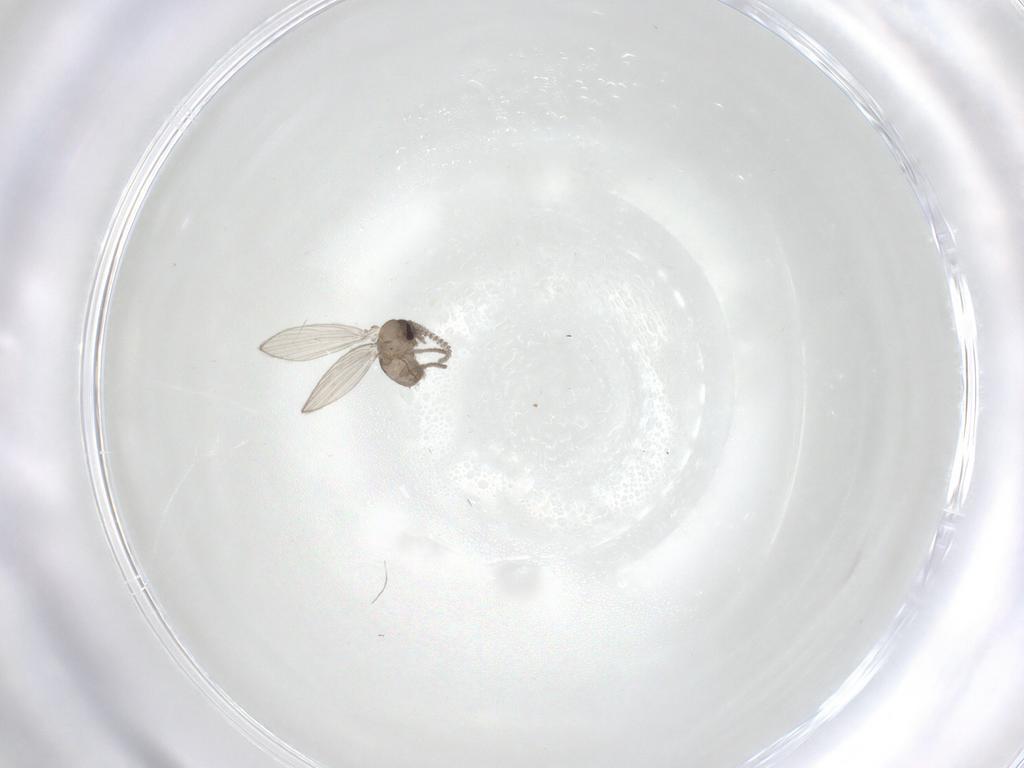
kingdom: Animalia
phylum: Arthropoda
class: Insecta
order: Diptera
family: Psychodidae
